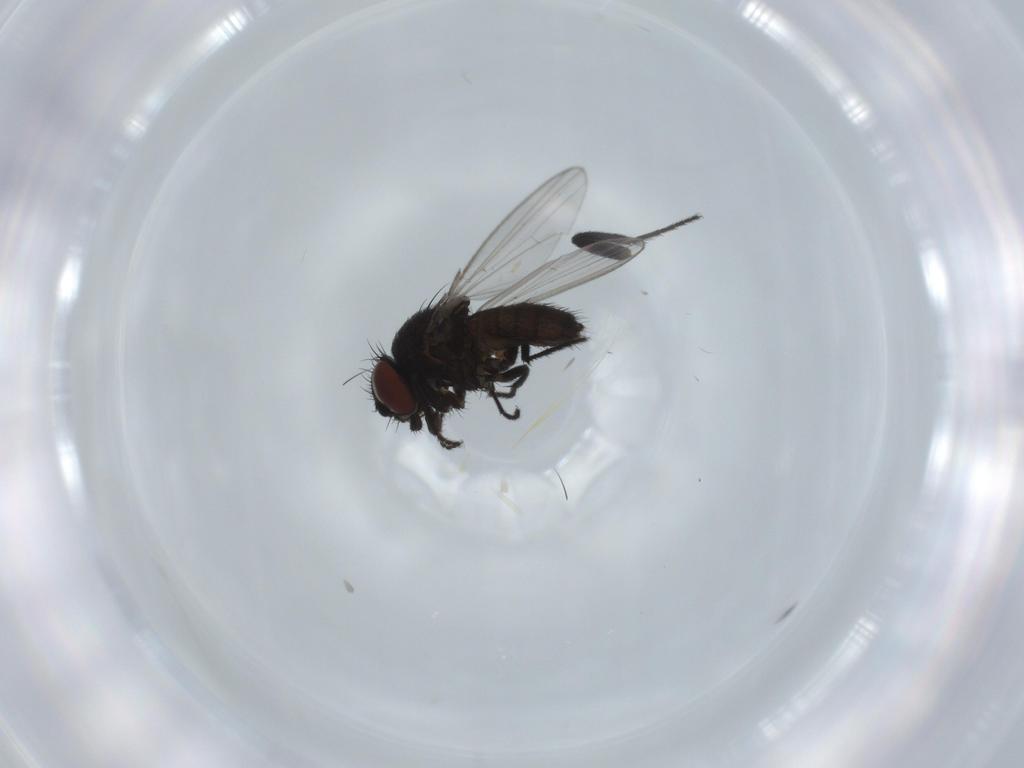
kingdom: Animalia
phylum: Arthropoda
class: Insecta
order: Diptera
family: Milichiidae
